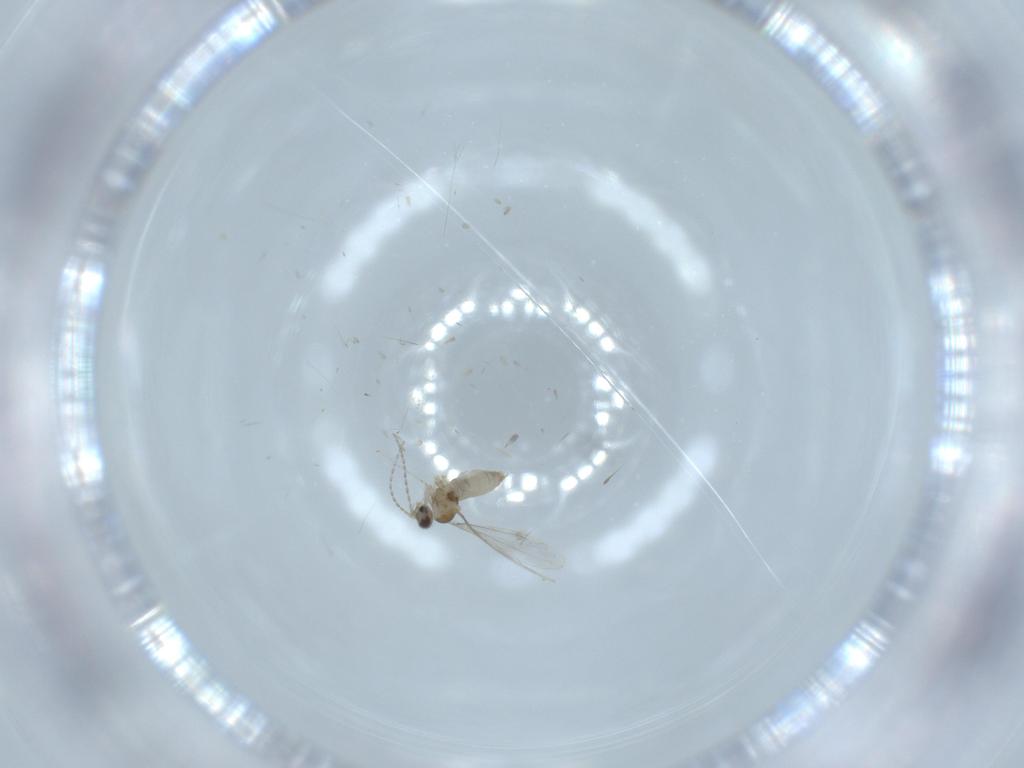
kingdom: Animalia
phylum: Arthropoda
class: Insecta
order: Diptera
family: Cecidomyiidae
